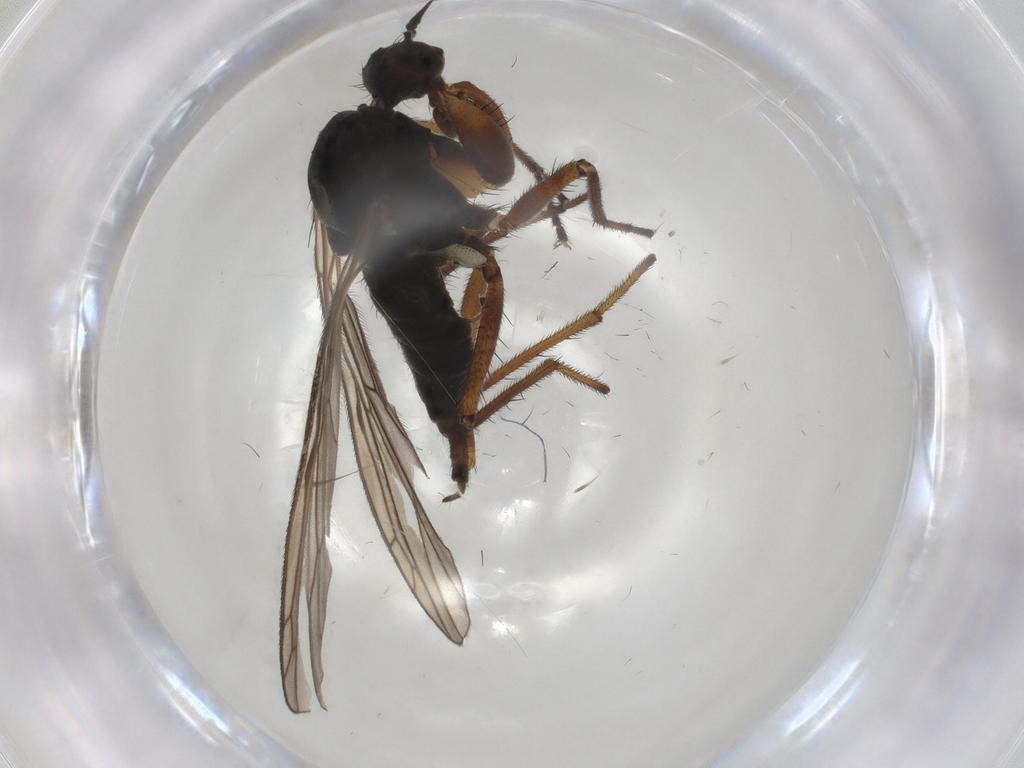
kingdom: Animalia
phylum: Arthropoda
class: Insecta
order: Diptera
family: Empididae
